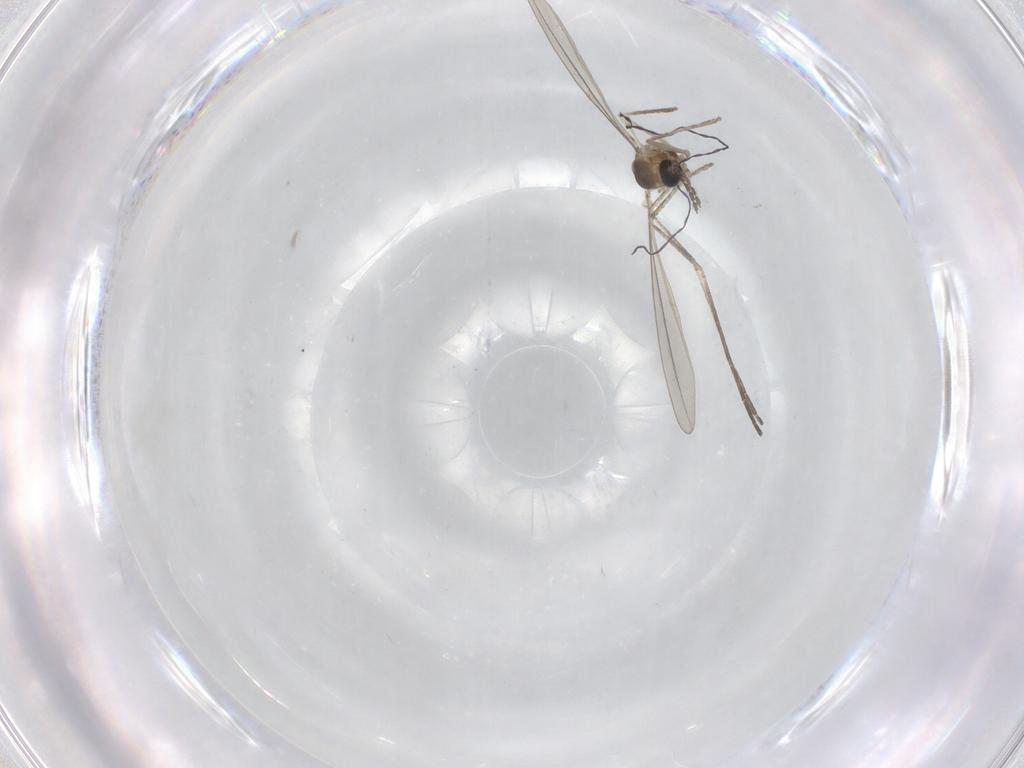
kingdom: Animalia
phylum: Arthropoda
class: Insecta
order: Diptera
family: Cecidomyiidae
